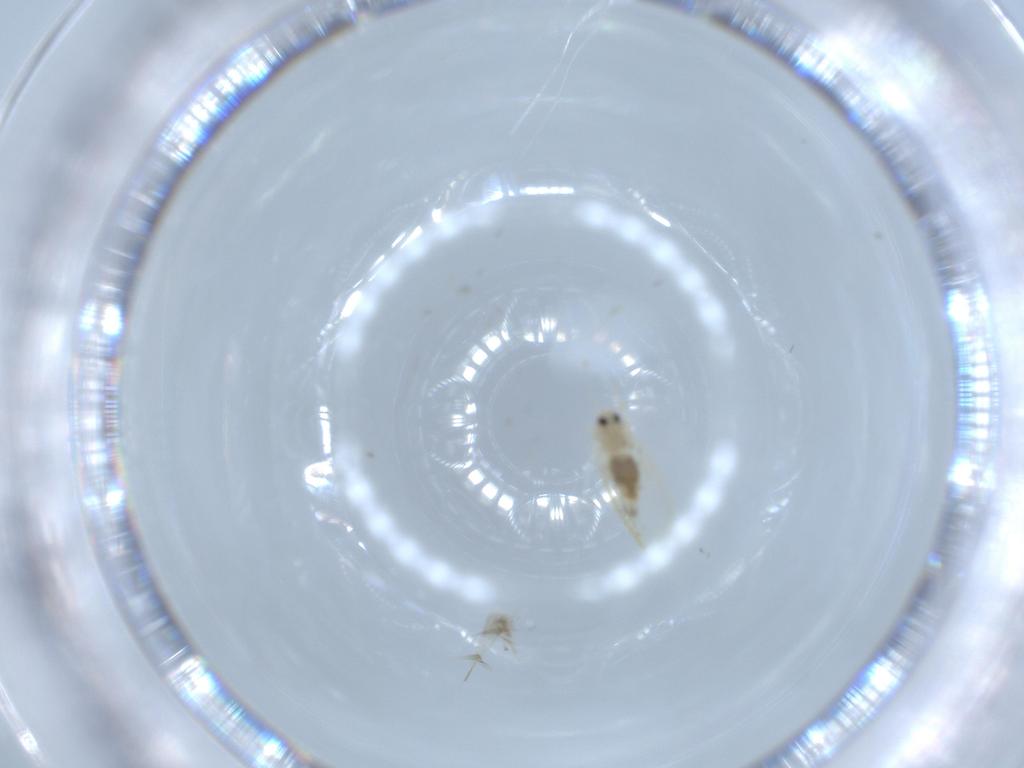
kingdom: Animalia
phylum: Arthropoda
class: Insecta
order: Hemiptera
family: Aleyrodidae
